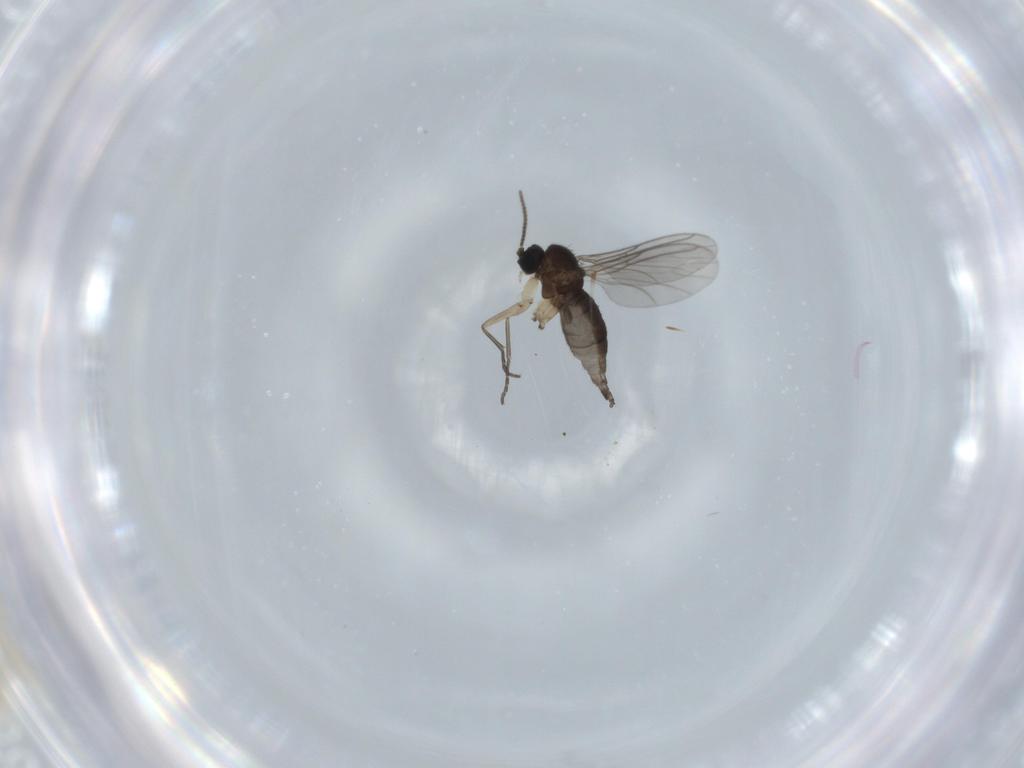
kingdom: Animalia
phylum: Arthropoda
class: Insecta
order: Diptera
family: Sciaridae
